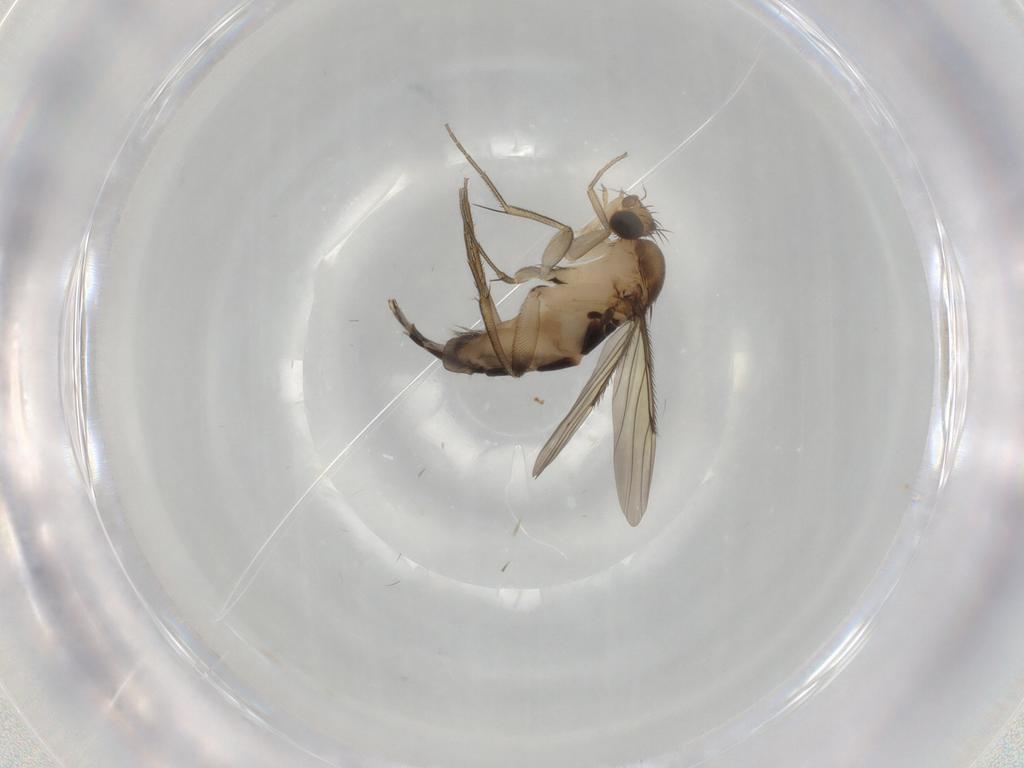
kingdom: Animalia
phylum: Arthropoda
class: Insecta
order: Diptera
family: Phoridae
